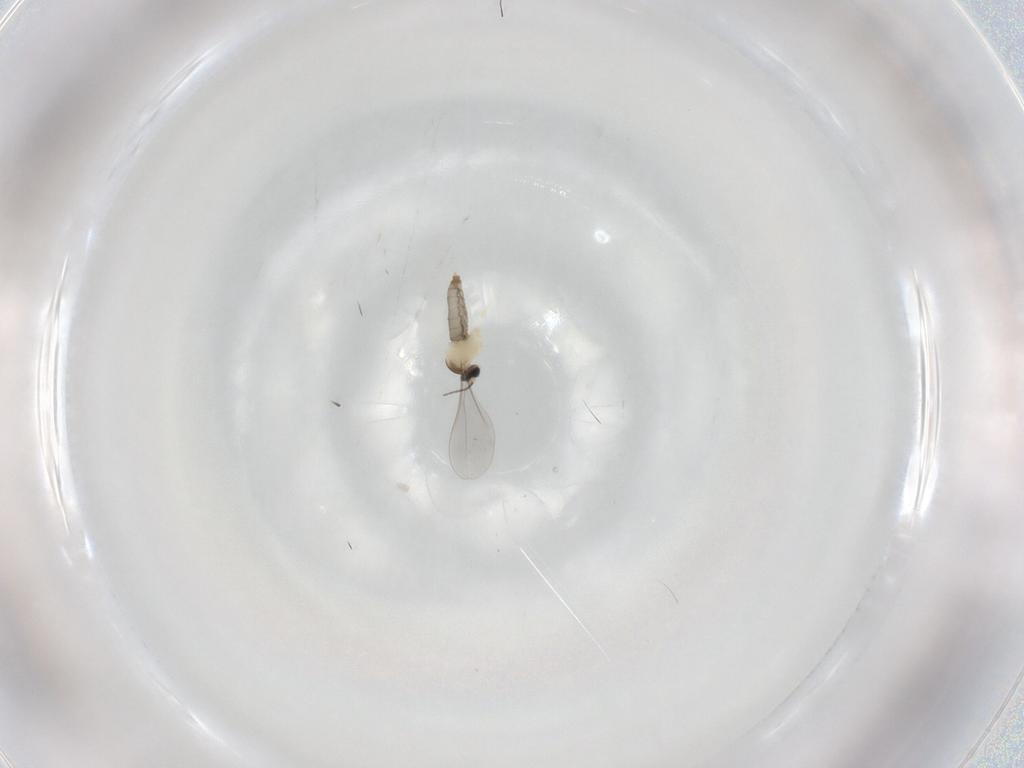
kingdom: Animalia
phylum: Arthropoda
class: Insecta
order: Diptera
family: Cecidomyiidae
